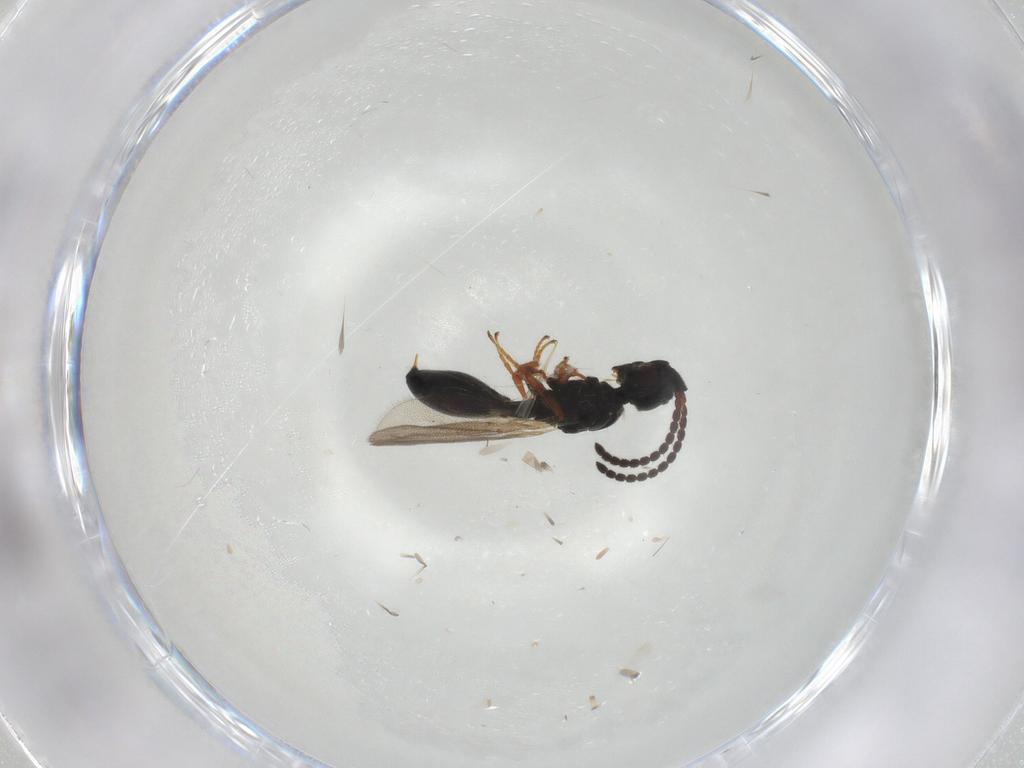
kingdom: Animalia
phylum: Arthropoda
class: Insecta
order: Hymenoptera
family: Diapriidae
